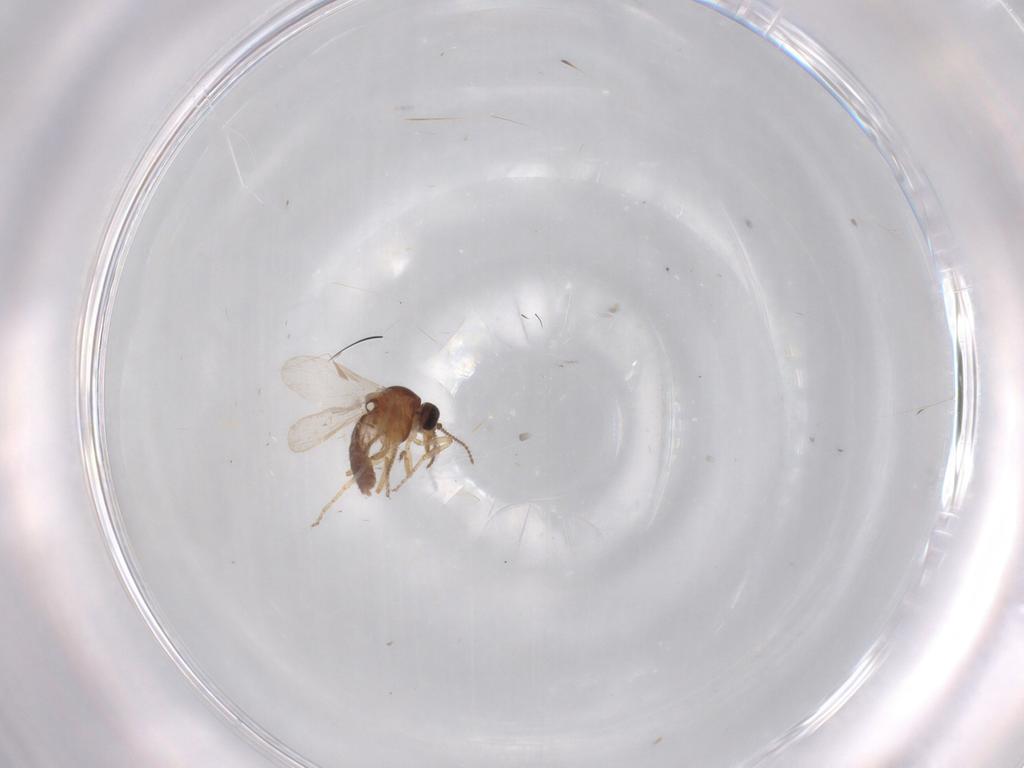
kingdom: Animalia
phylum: Arthropoda
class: Insecta
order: Diptera
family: Ceratopogonidae
